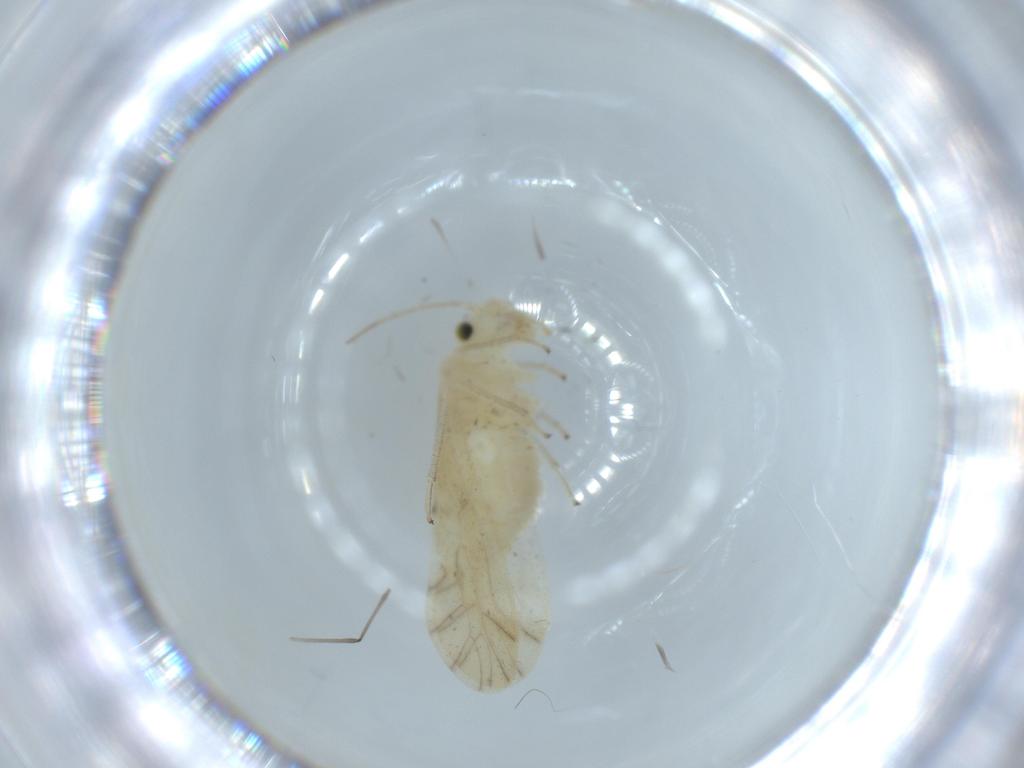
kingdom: Animalia
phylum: Arthropoda
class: Insecta
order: Psocodea
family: Caeciliusidae
